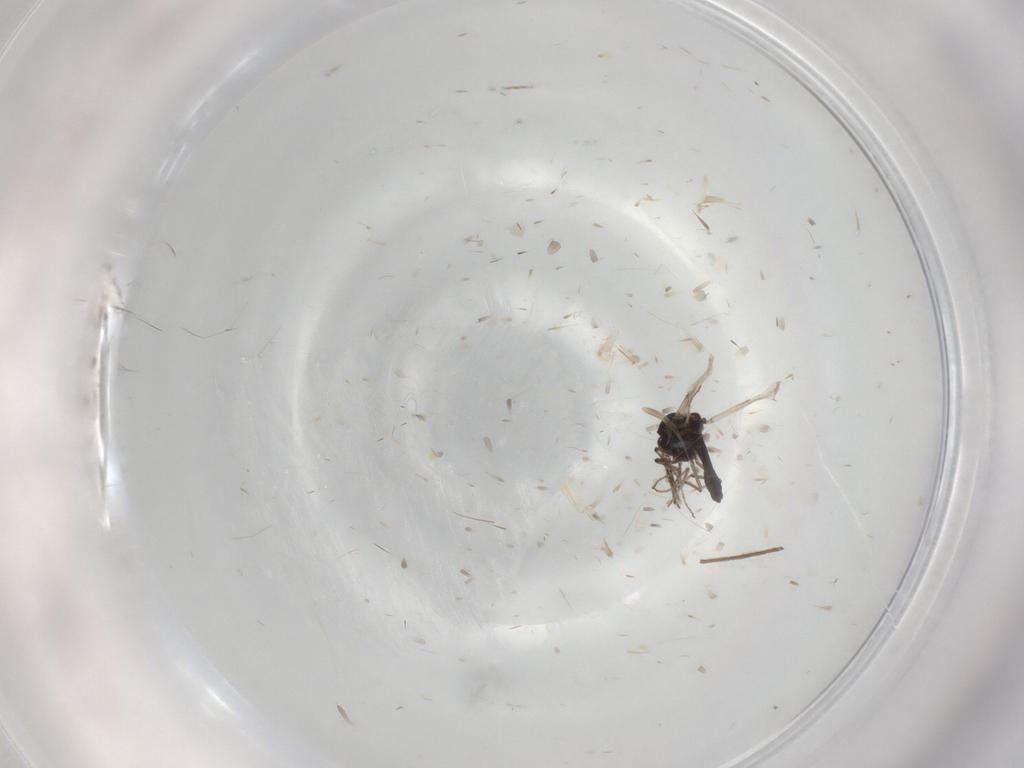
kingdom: Animalia
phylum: Arthropoda
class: Insecta
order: Diptera
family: Ceratopogonidae
